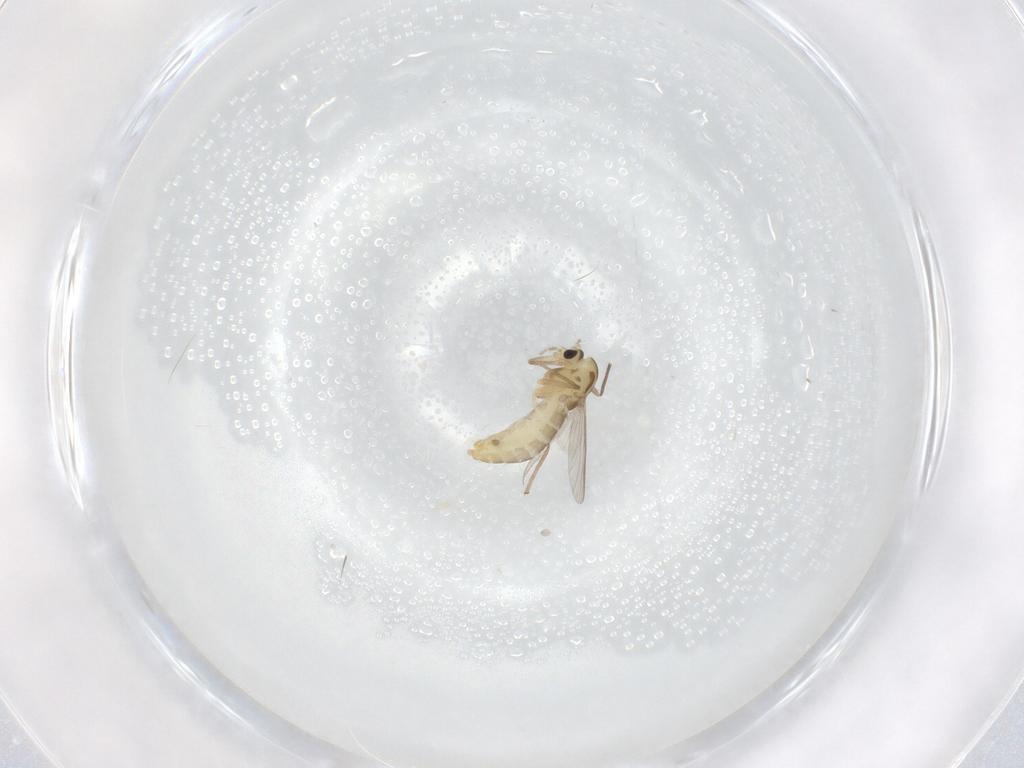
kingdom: Animalia
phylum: Arthropoda
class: Insecta
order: Diptera
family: Chironomidae
